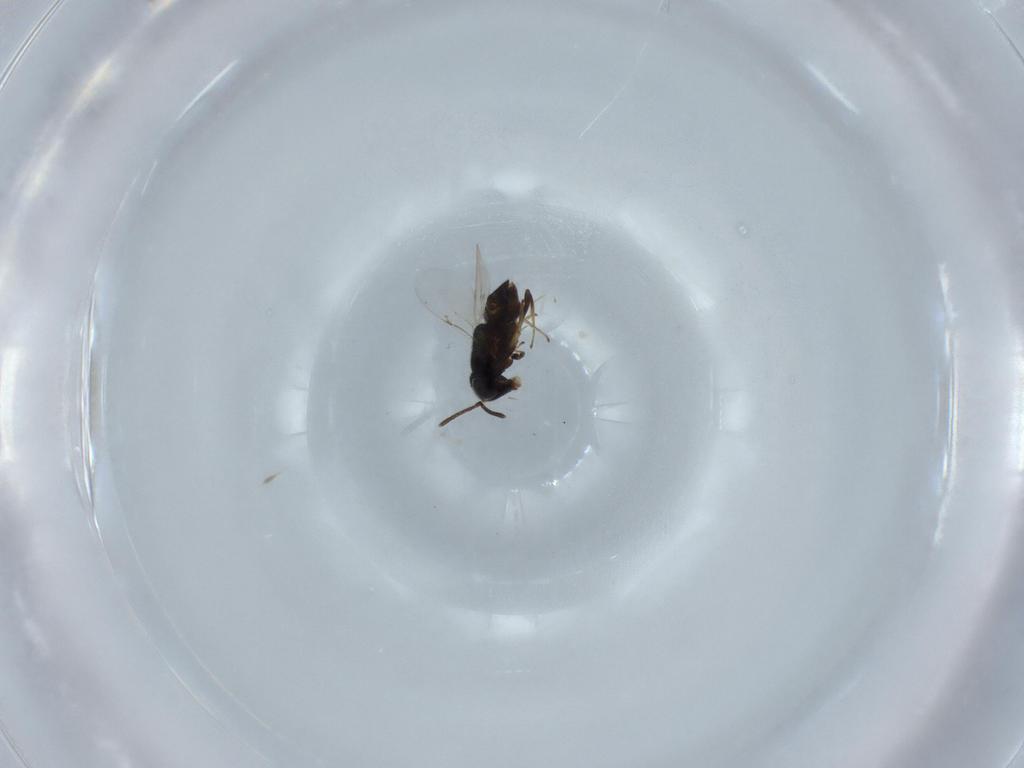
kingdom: Animalia
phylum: Arthropoda
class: Insecta
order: Hymenoptera
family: Encyrtidae
